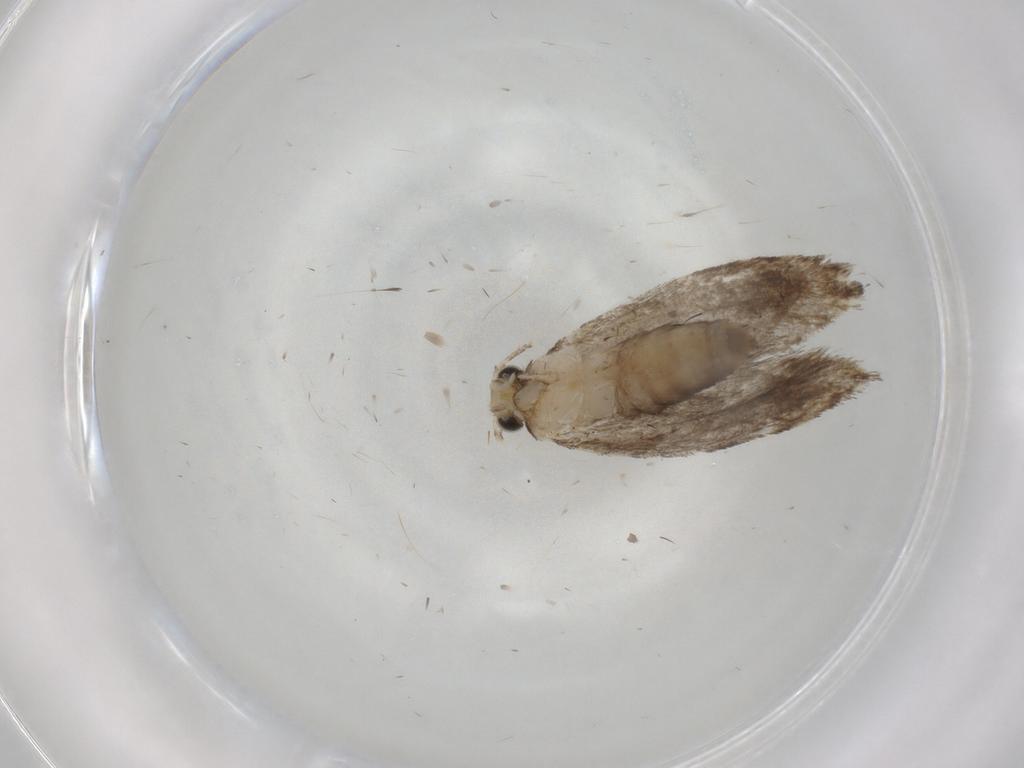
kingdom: Animalia
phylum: Arthropoda
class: Insecta
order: Lepidoptera
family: Tineidae
